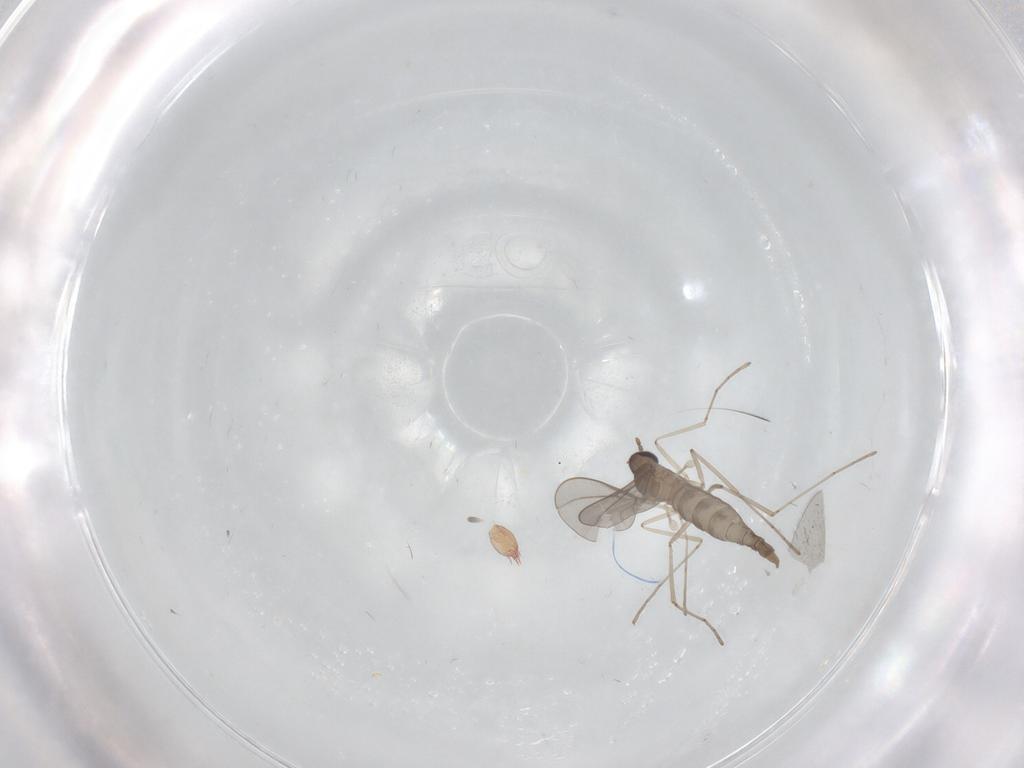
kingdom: Animalia
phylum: Arthropoda
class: Insecta
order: Diptera
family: Cecidomyiidae
